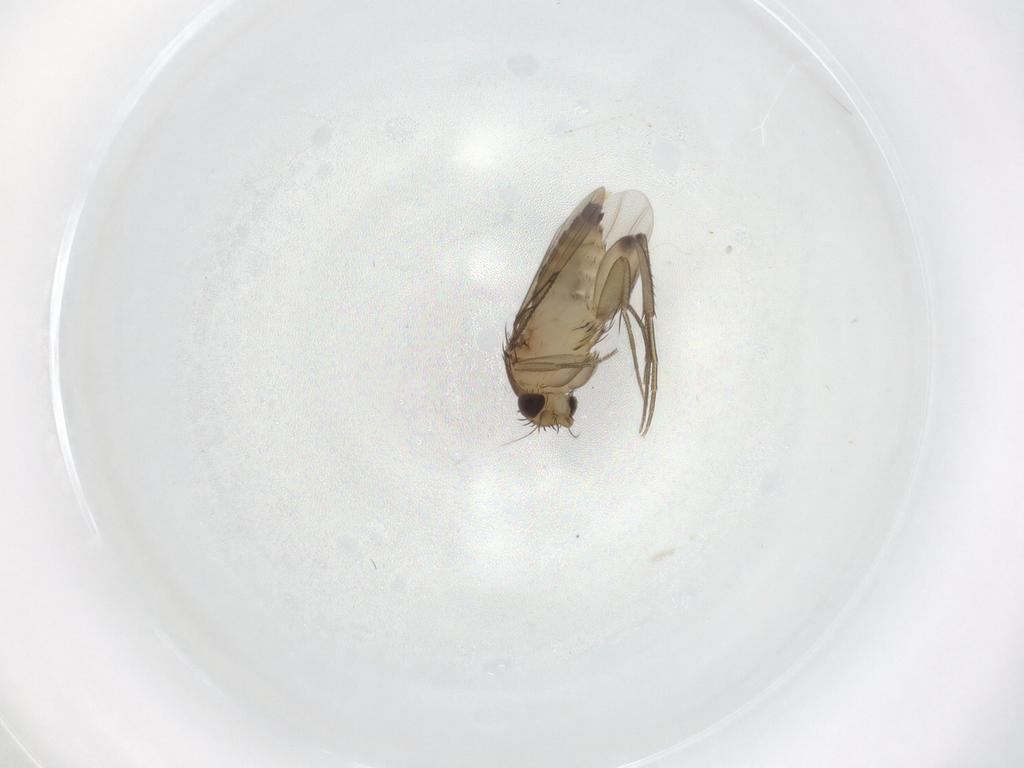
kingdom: Animalia
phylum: Arthropoda
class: Insecta
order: Diptera
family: Phoridae
